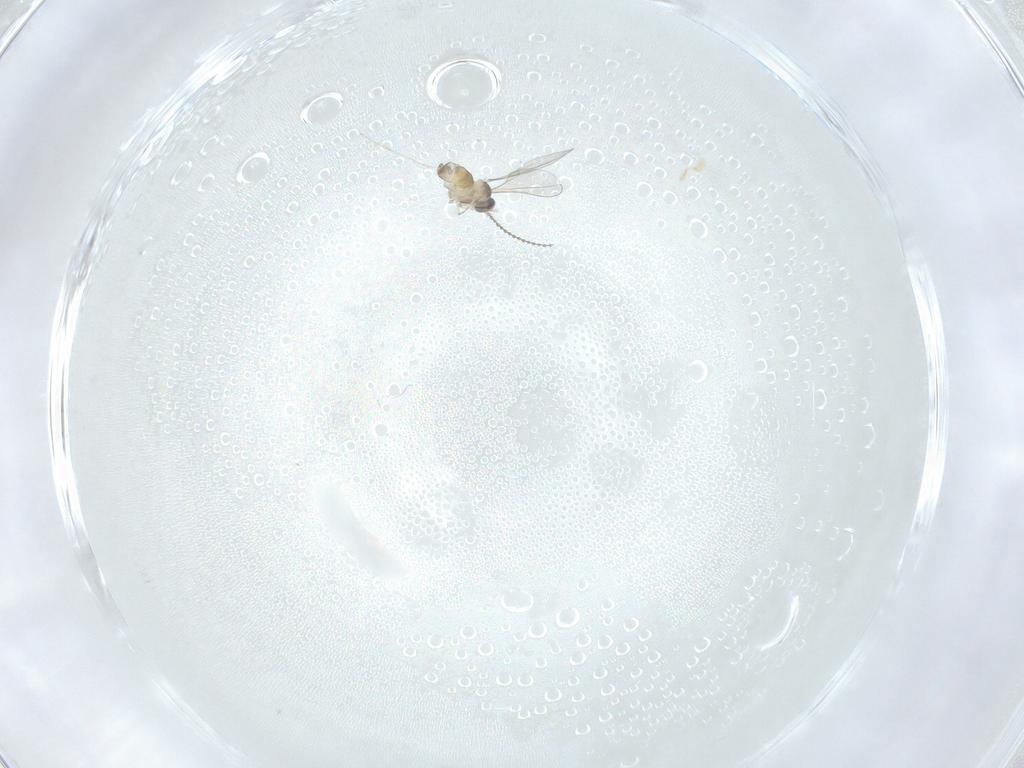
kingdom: Animalia
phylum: Arthropoda
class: Insecta
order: Diptera
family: Cecidomyiidae
